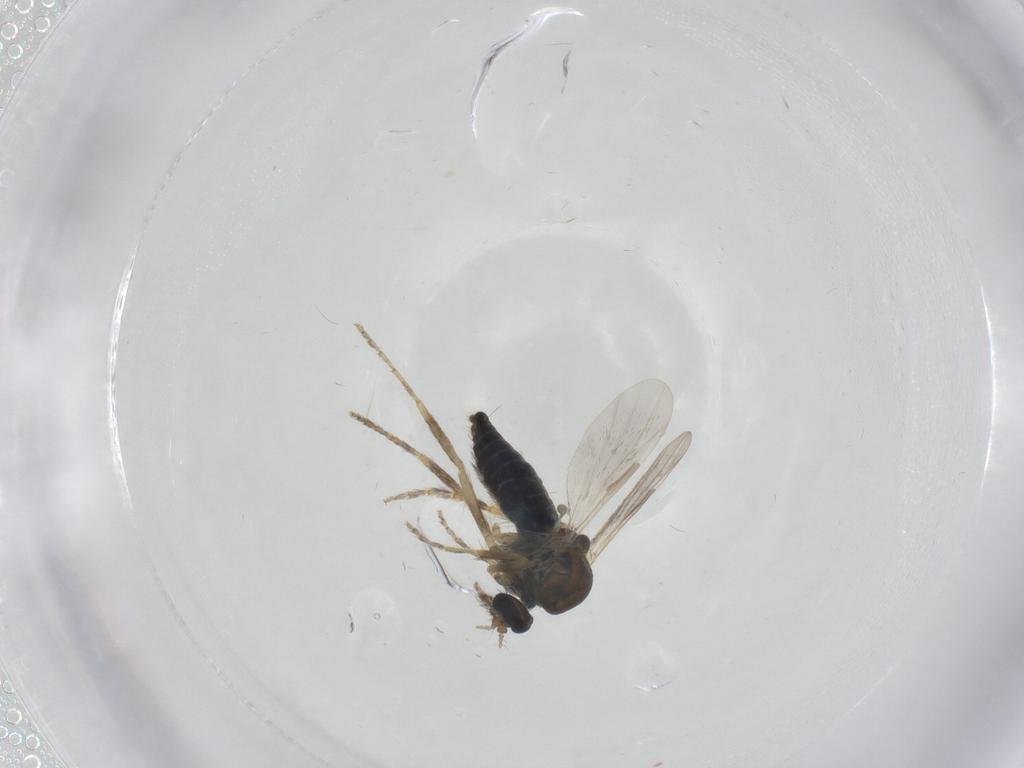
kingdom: Animalia
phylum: Arthropoda
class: Insecta
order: Diptera
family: Ceratopogonidae
